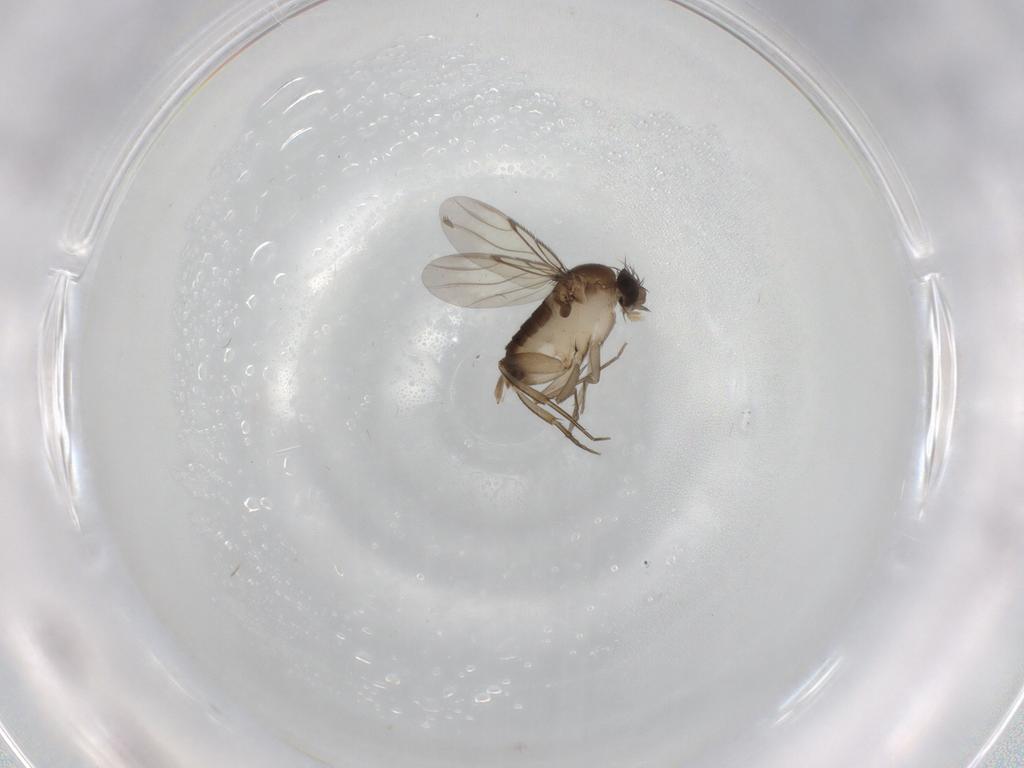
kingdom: Animalia
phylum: Arthropoda
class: Insecta
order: Diptera
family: Phoridae
